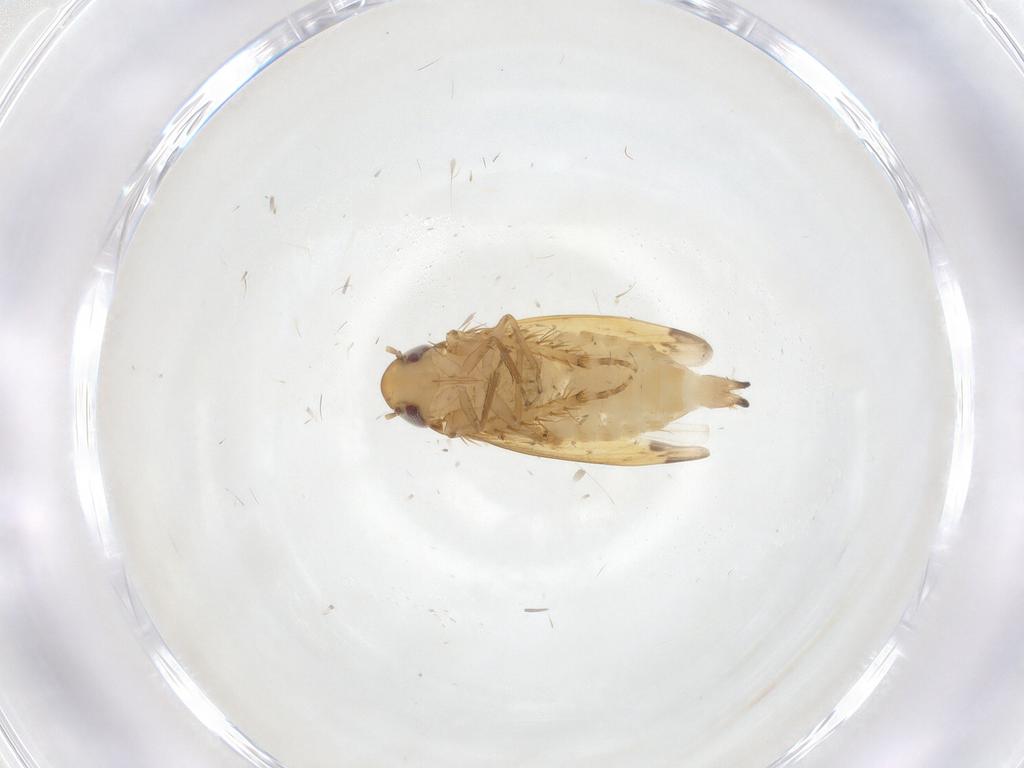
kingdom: Animalia
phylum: Arthropoda
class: Insecta
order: Hemiptera
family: Cicadellidae
